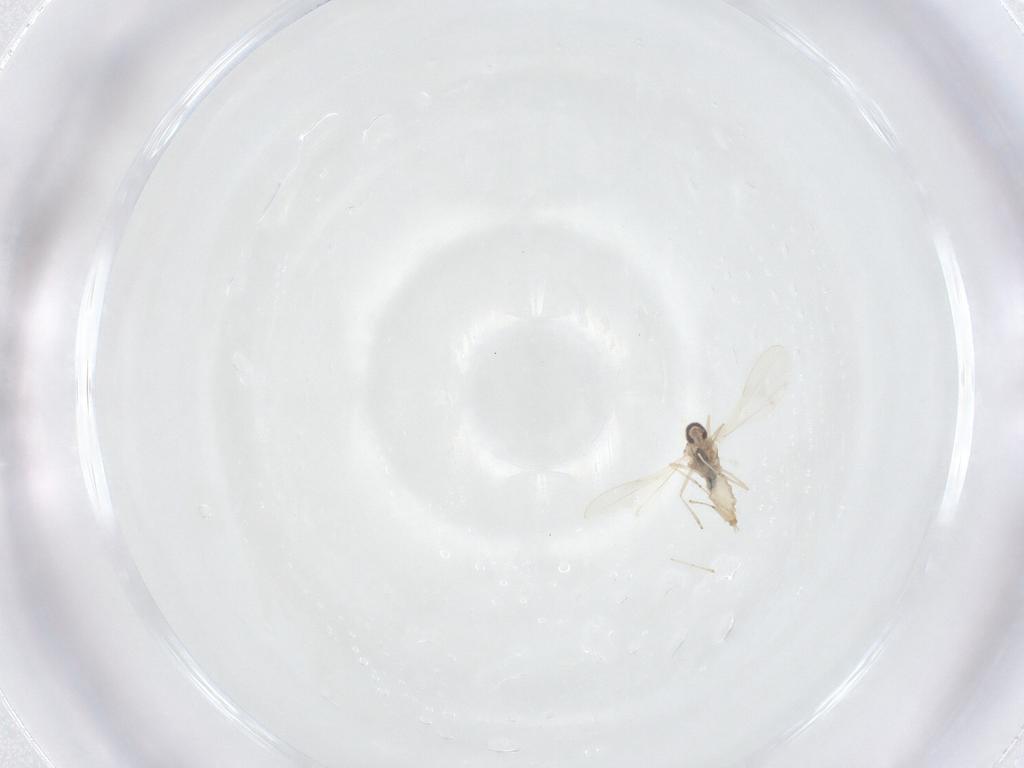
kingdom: Animalia
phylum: Arthropoda
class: Insecta
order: Diptera
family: Cecidomyiidae
